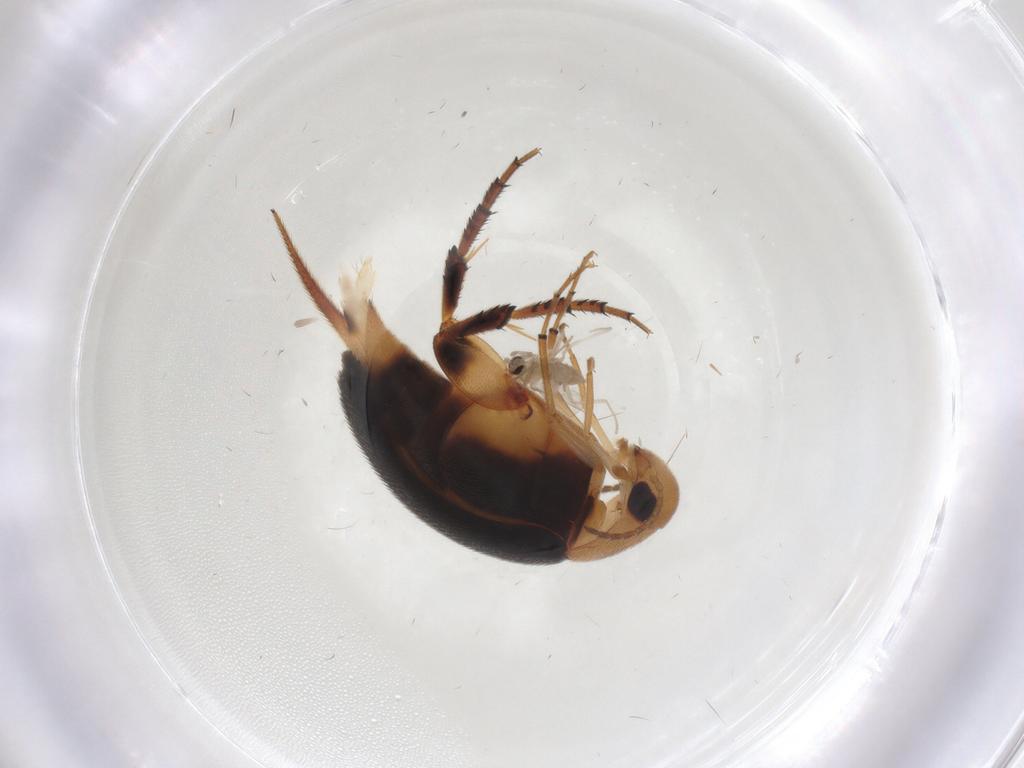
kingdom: Animalia
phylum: Arthropoda
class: Insecta
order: Coleoptera
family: Mordellidae
